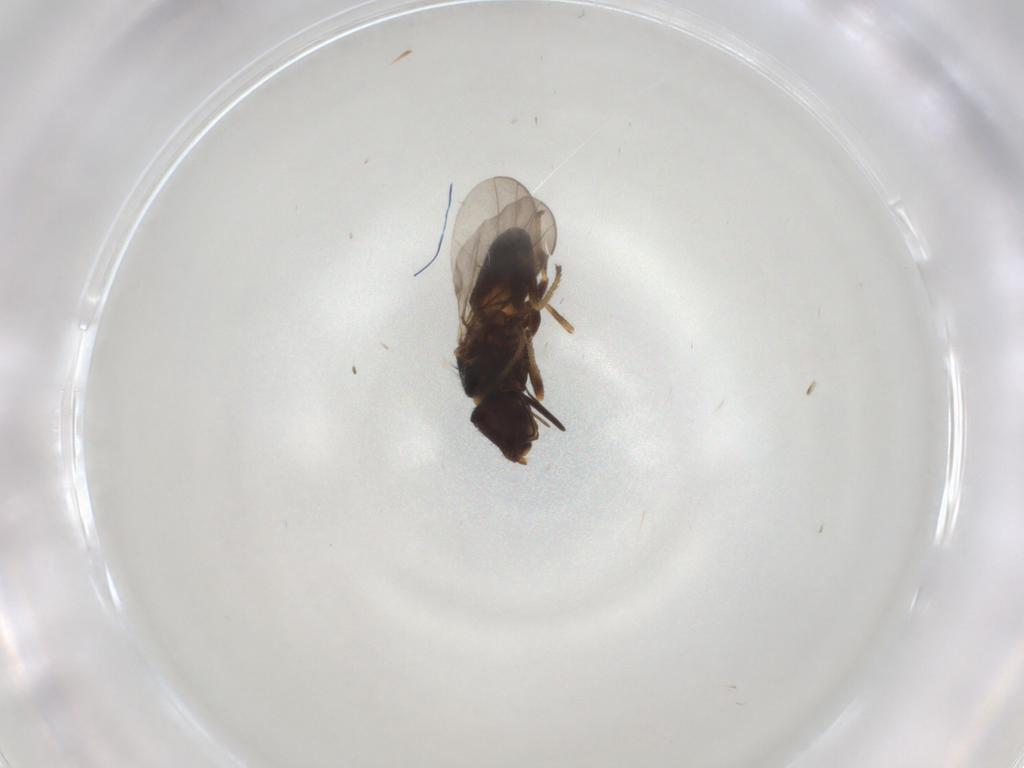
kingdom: Animalia
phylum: Arthropoda
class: Insecta
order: Diptera
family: Chloropidae
